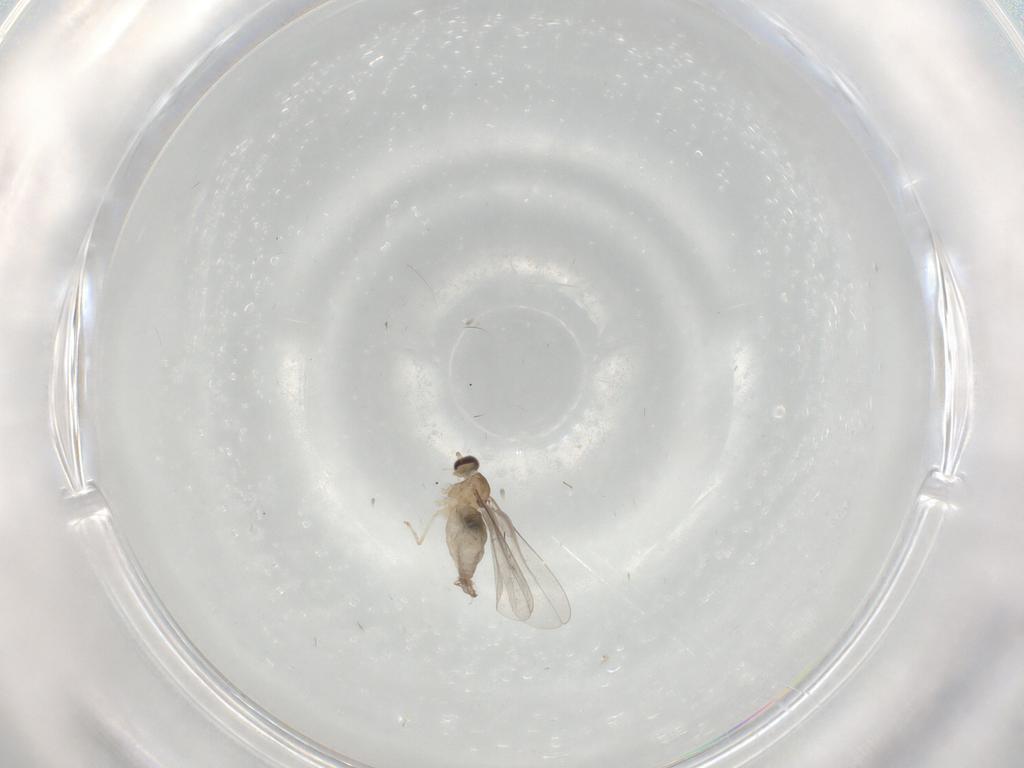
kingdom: Animalia
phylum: Arthropoda
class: Insecta
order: Diptera
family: Cecidomyiidae
